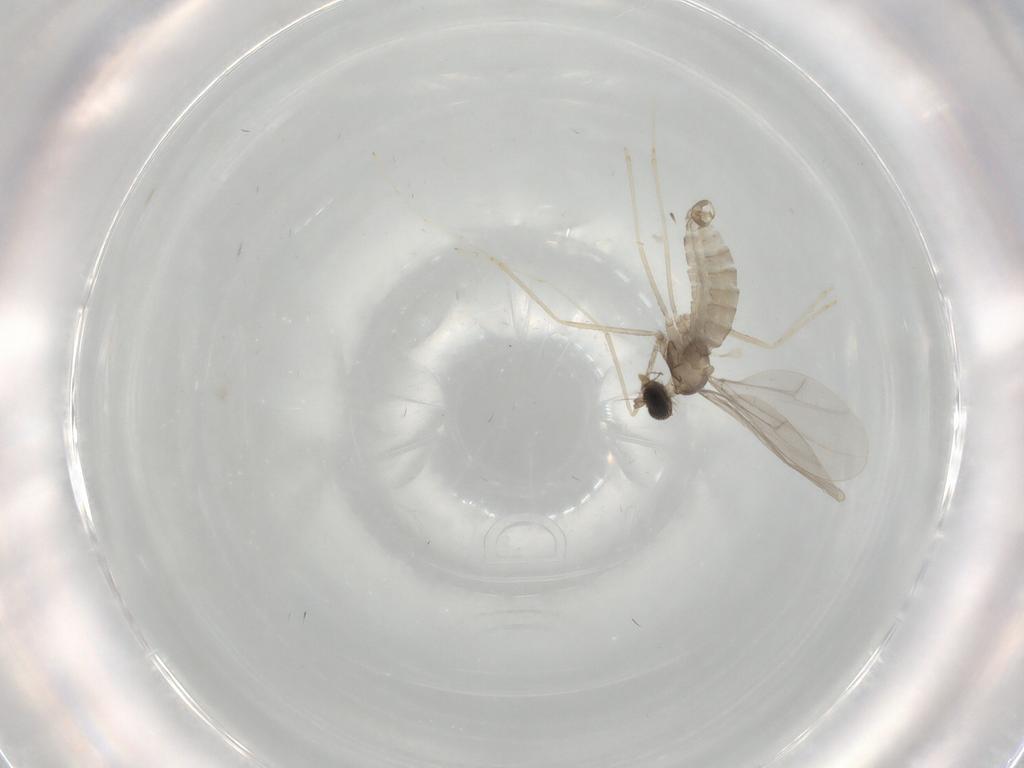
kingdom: Animalia
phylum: Arthropoda
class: Insecta
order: Diptera
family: Cecidomyiidae
